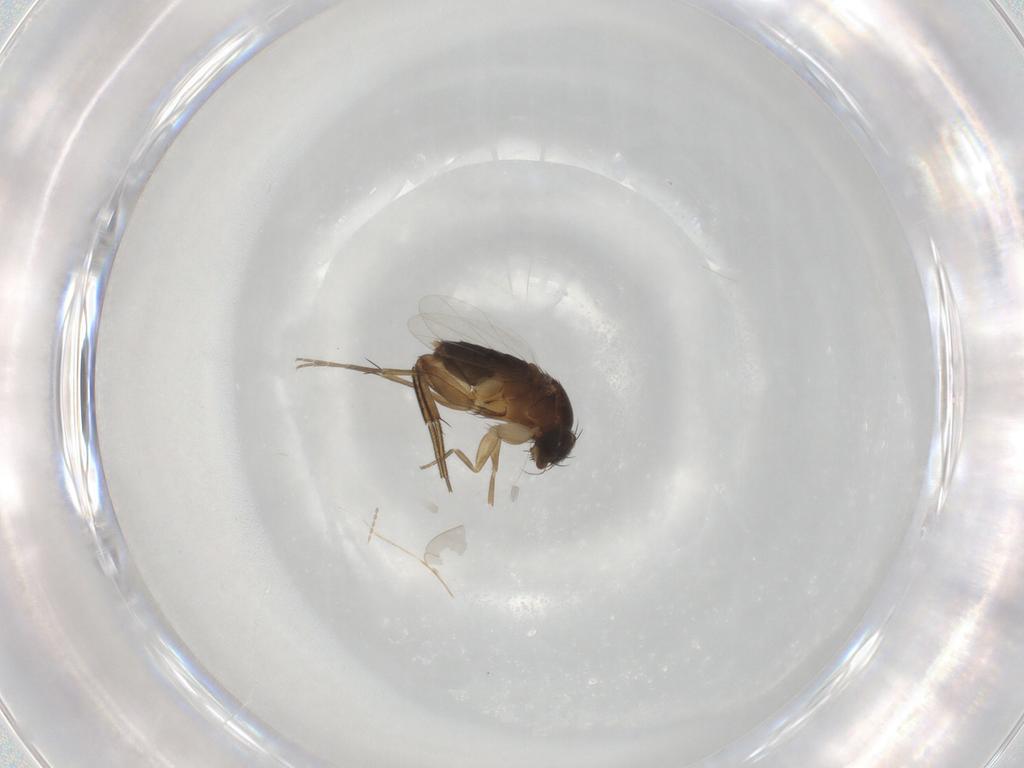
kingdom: Animalia
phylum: Arthropoda
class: Insecta
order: Diptera
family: Phoridae
